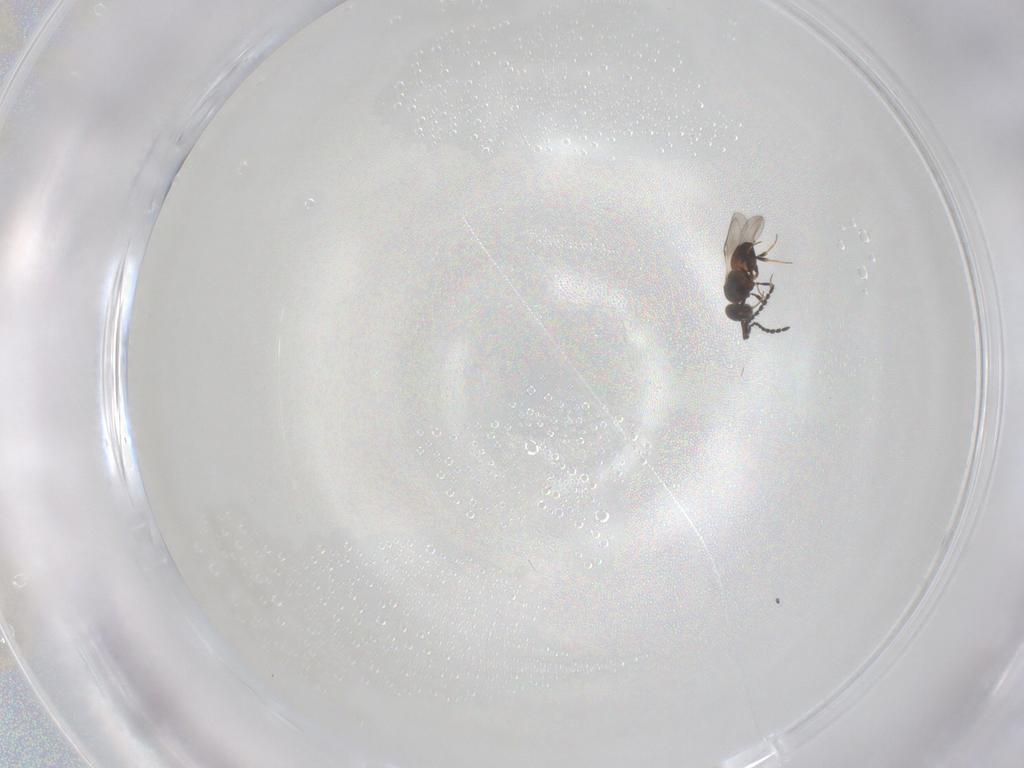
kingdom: Animalia
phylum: Arthropoda
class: Insecta
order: Hymenoptera
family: Ceraphronidae
